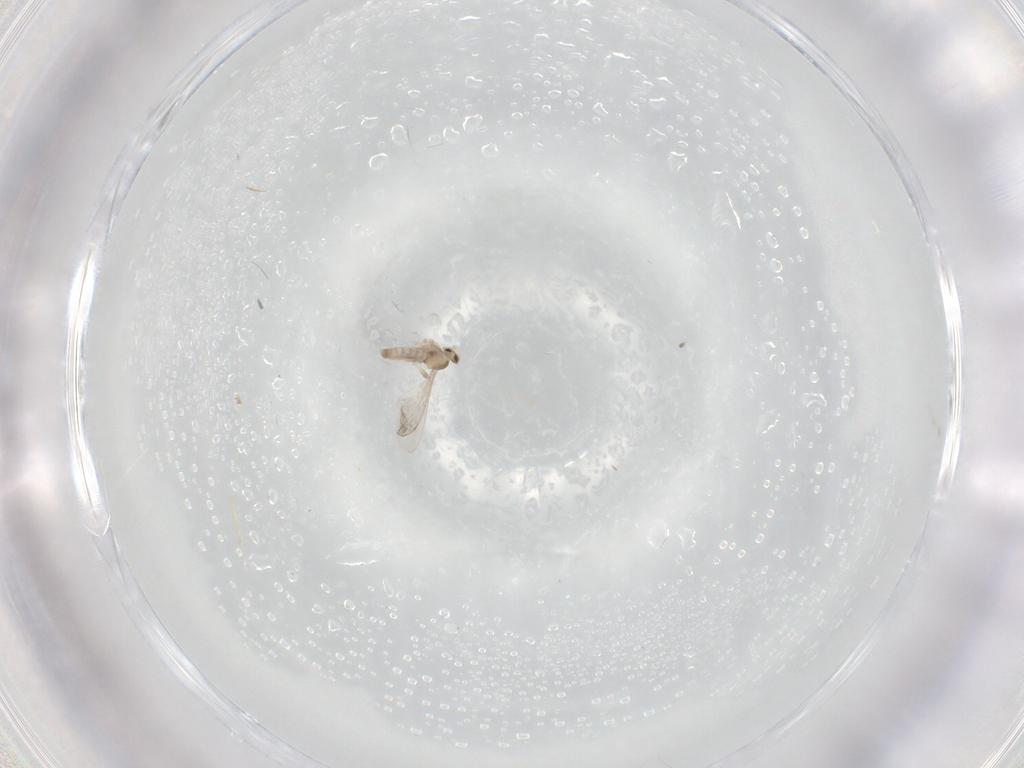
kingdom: Animalia
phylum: Arthropoda
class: Insecta
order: Diptera
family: Cecidomyiidae
